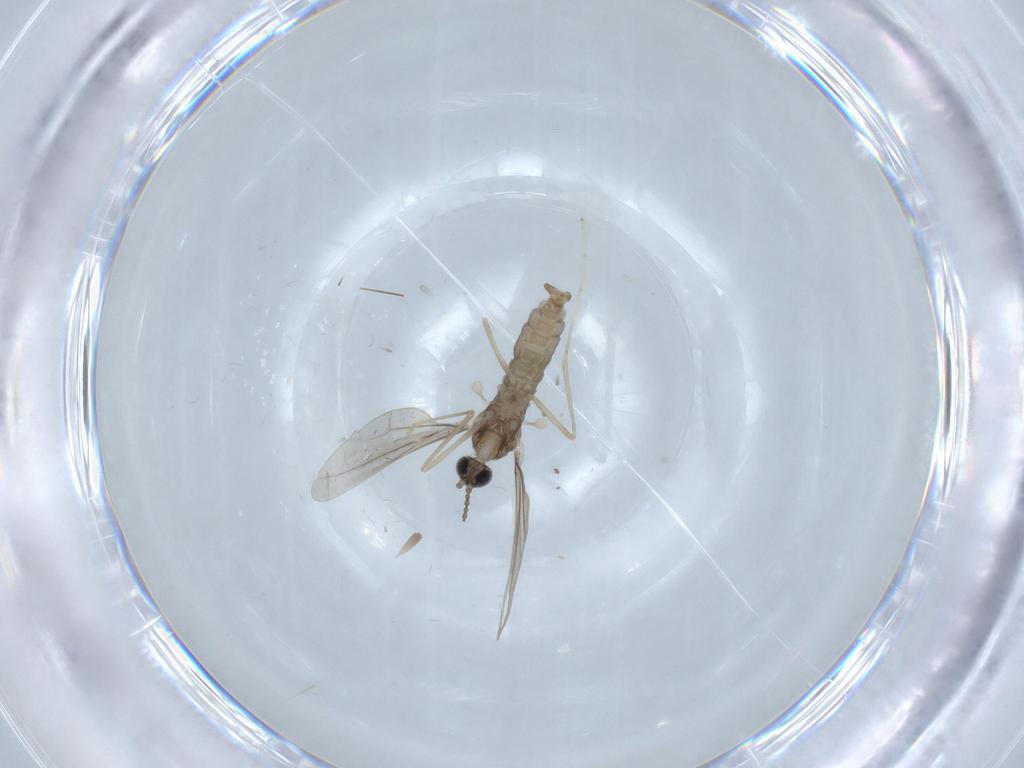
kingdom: Animalia
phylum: Arthropoda
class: Insecta
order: Diptera
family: Cecidomyiidae
